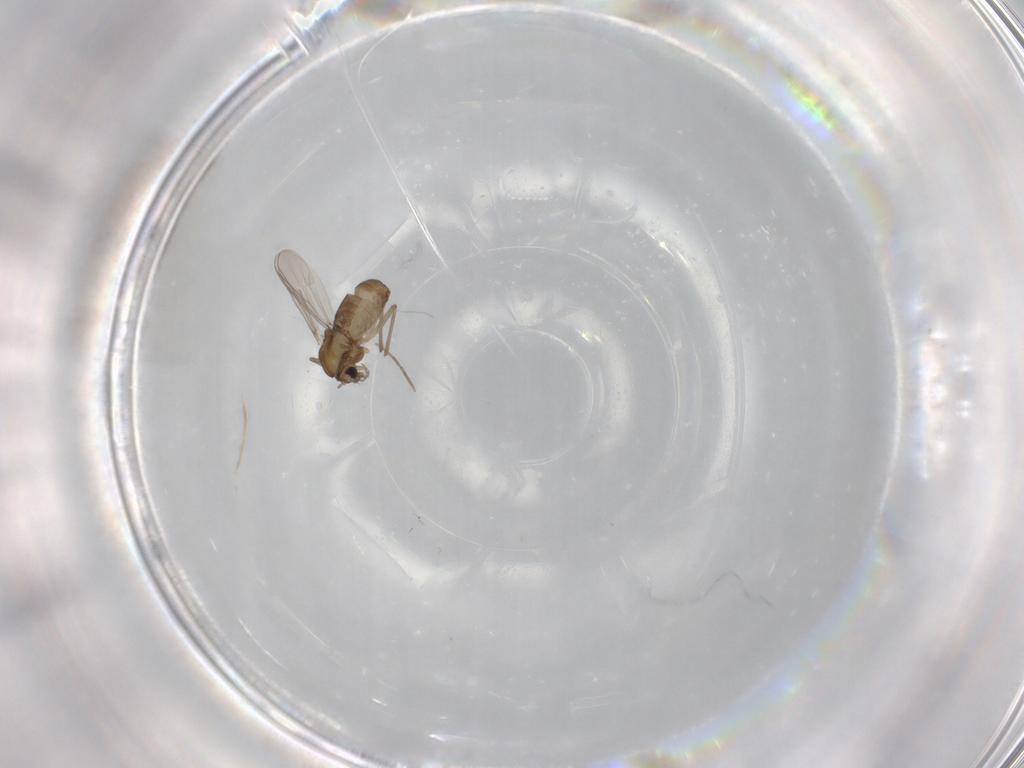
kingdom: Animalia
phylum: Arthropoda
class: Insecta
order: Diptera
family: Chironomidae
